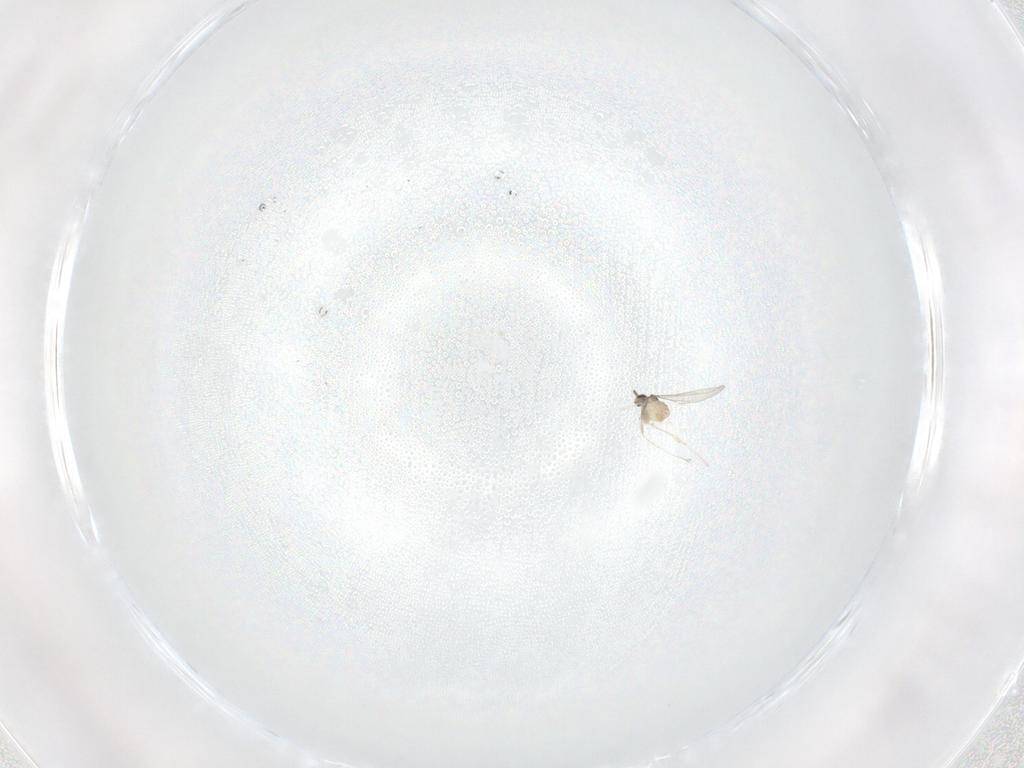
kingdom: Animalia
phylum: Arthropoda
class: Insecta
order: Diptera
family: Cecidomyiidae
